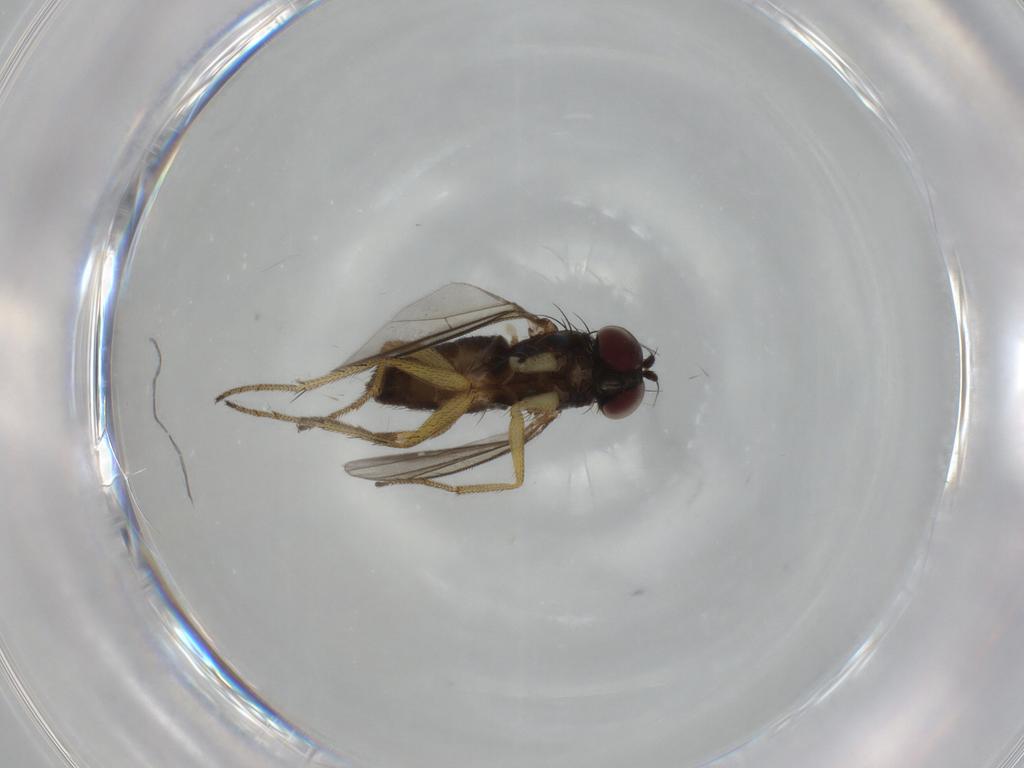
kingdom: Animalia
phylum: Arthropoda
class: Insecta
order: Diptera
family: Dolichopodidae
